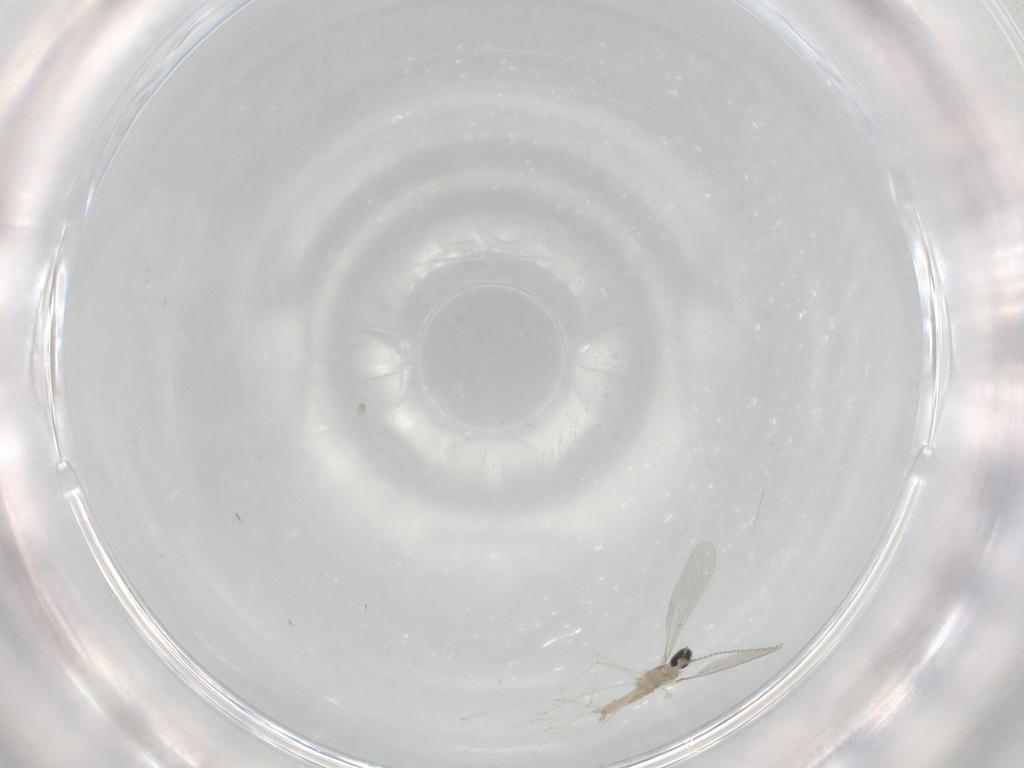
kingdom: Animalia
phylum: Arthropoda
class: Insecta
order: Diptera
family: Cecidomyiidae
